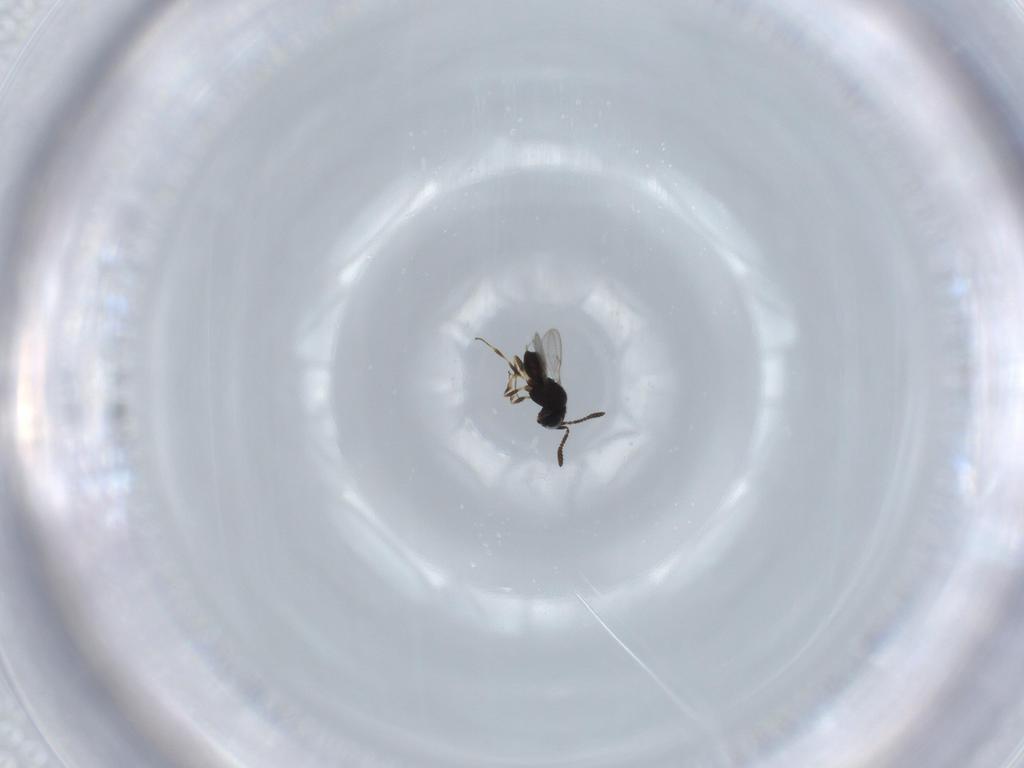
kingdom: Animalia
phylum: Arthropoda
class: Insecta
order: Hymenoptera
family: Scelionidae
